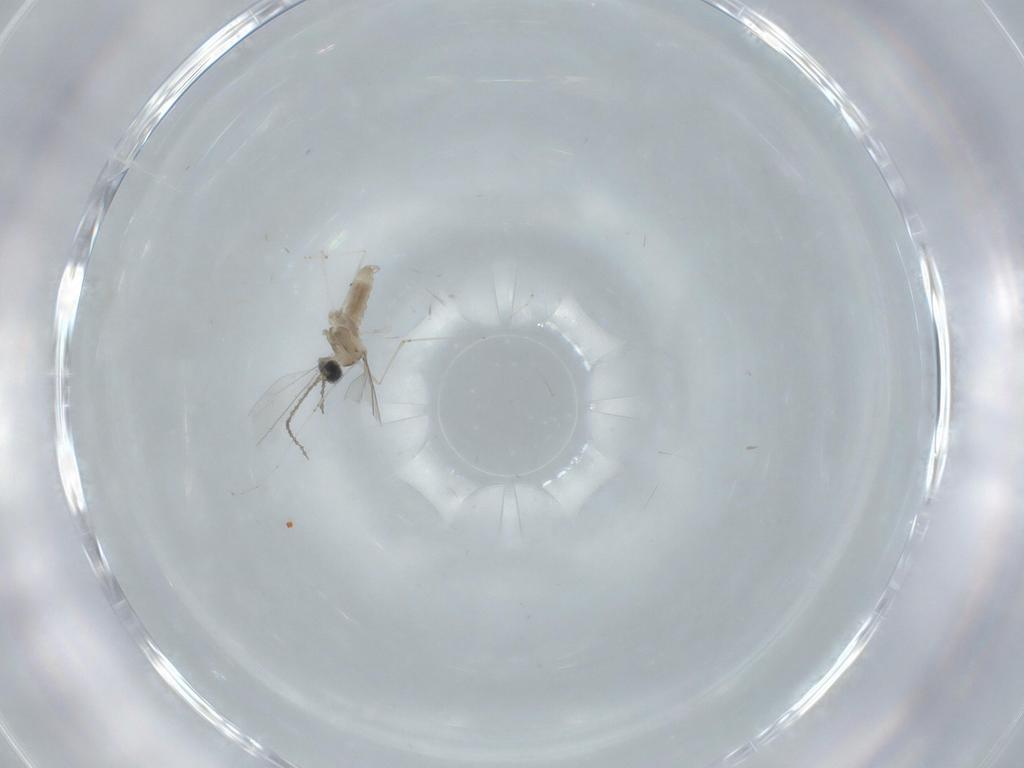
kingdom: Animalia
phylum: Arthropoda
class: Insecta
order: Diptera
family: Cecidomyiidae
